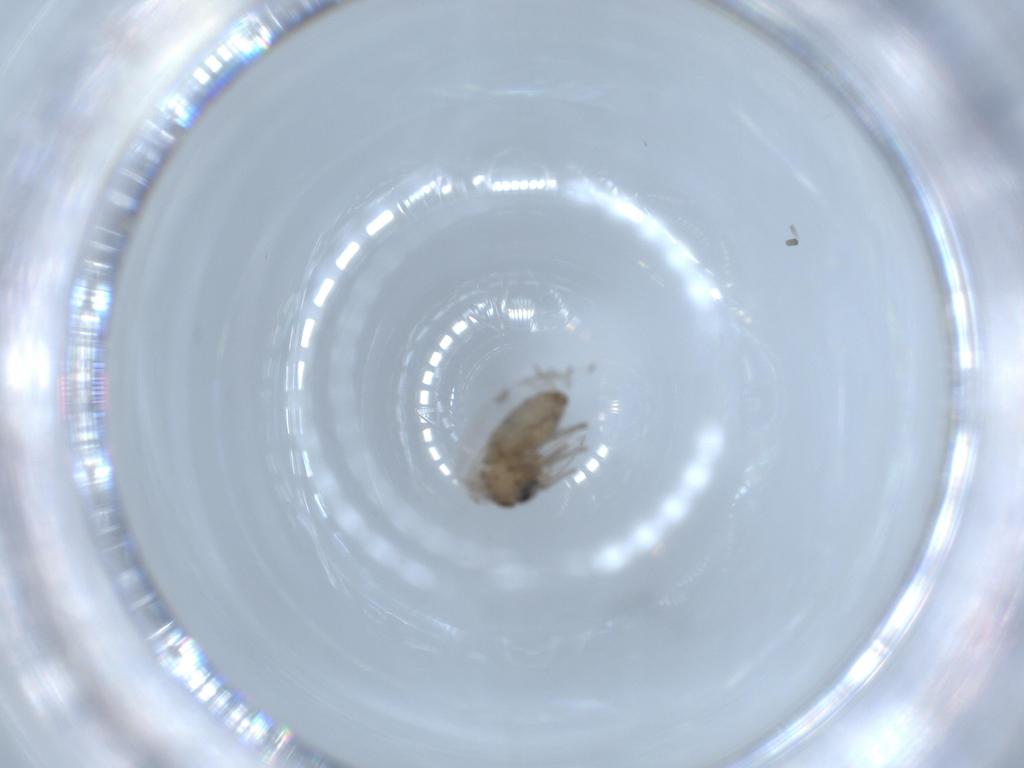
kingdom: Animalia
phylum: Arthropoda
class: Insecta
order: Diptera
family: Psychodidae
